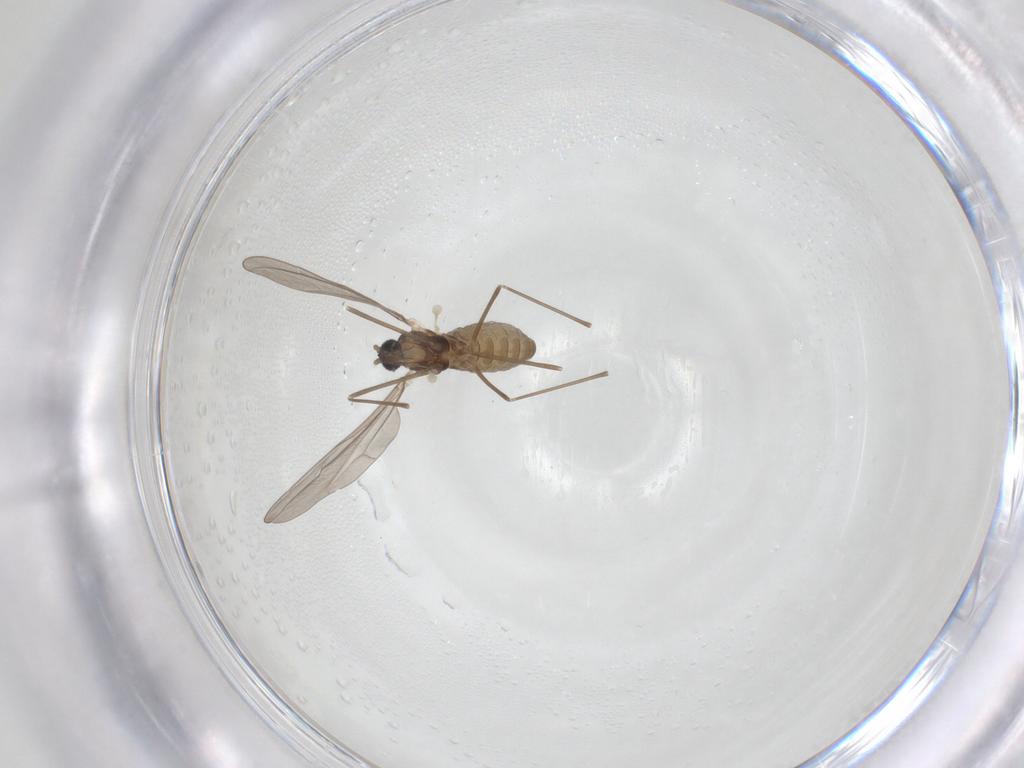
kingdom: Animalia
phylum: Arthropoda
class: Insecta
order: Diptera
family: Cecidomyiidae
